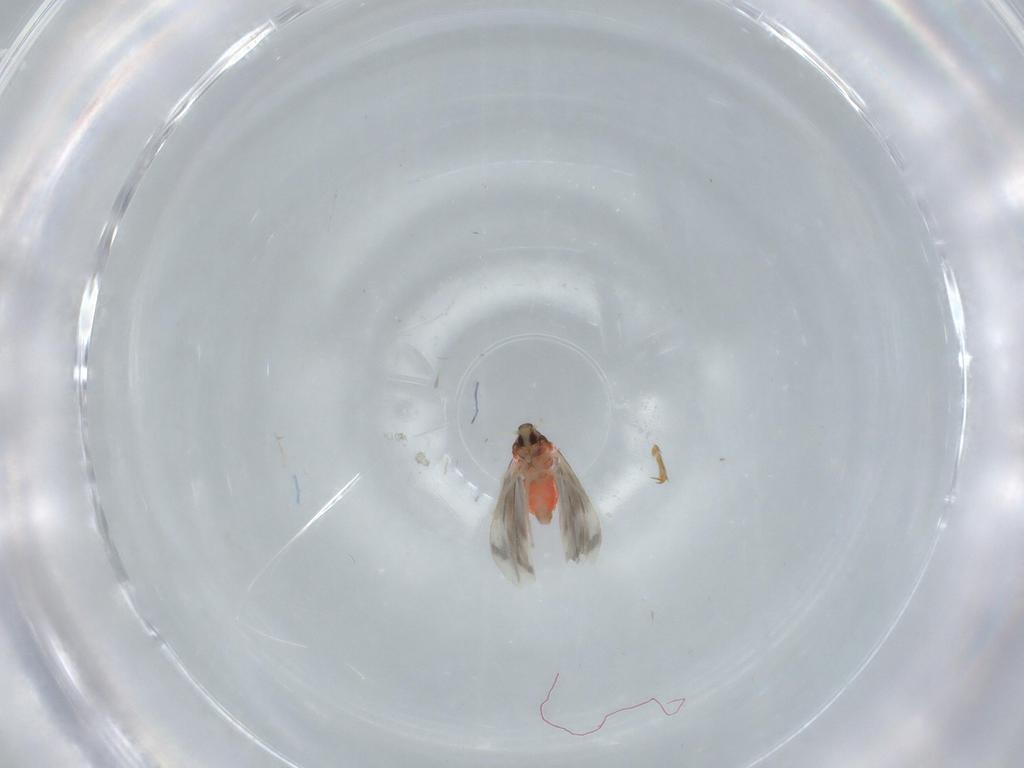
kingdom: Animalia
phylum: Arthropoda
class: Insecta
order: Hemiptera
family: Aleyrodidae
